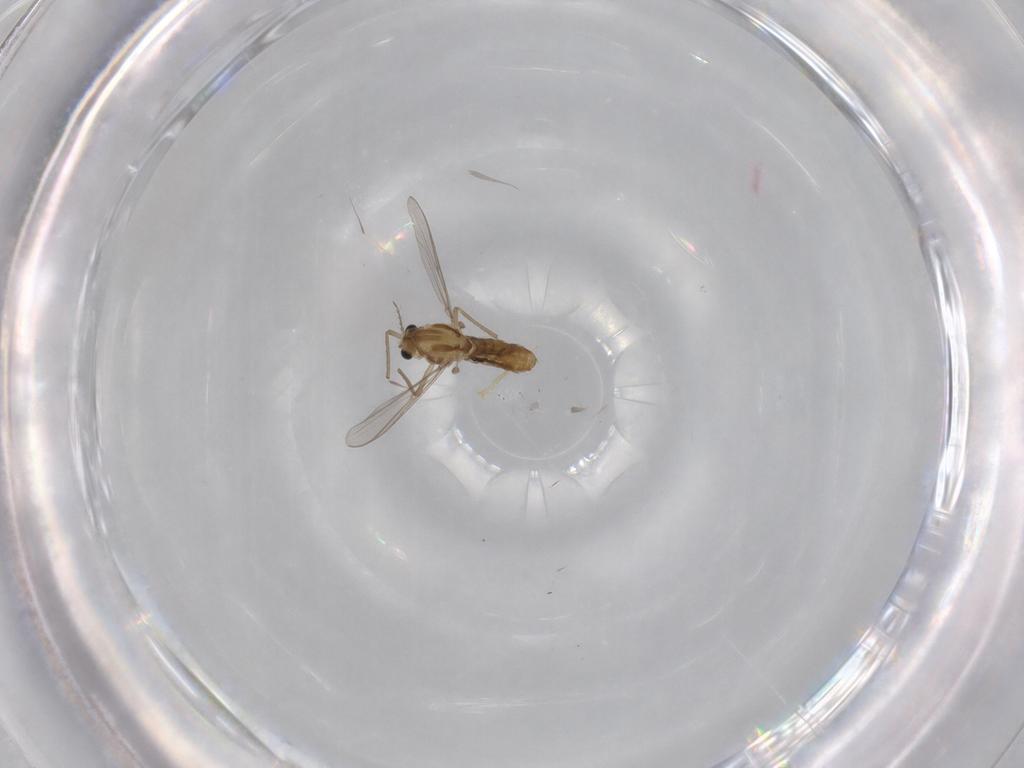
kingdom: Animalia
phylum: Arthropoda
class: Insecta
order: Diptera
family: Chironomidae
